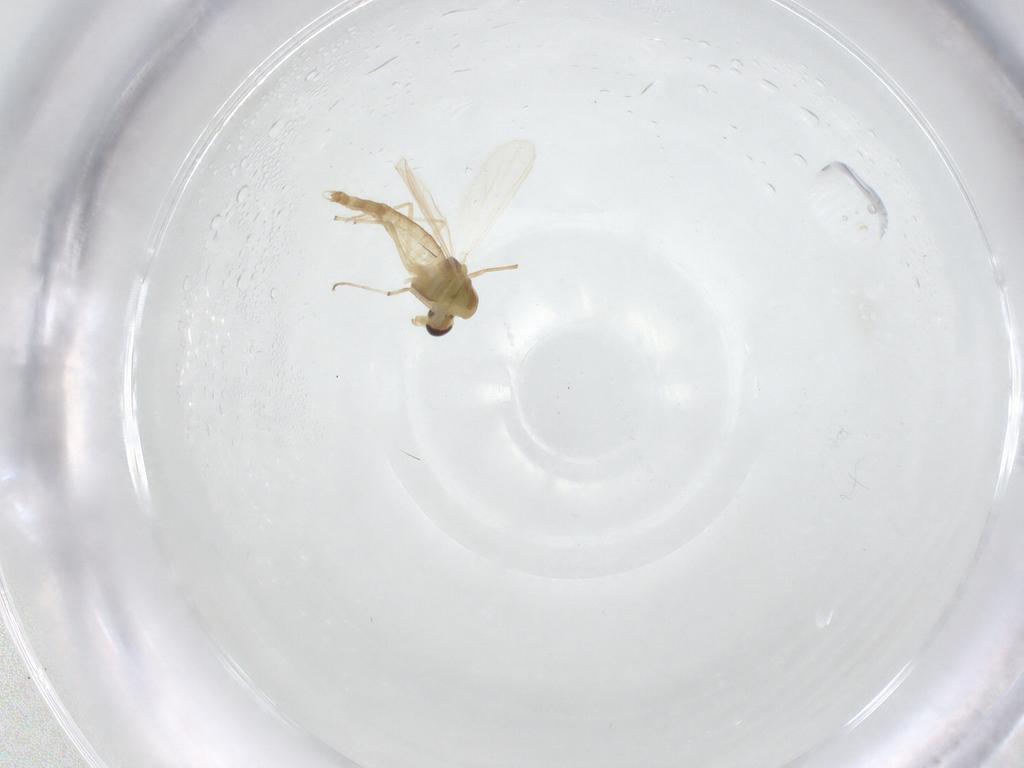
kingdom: Animalia
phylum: Arthropoda
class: Insecta
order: Diptera
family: Chironomidae
